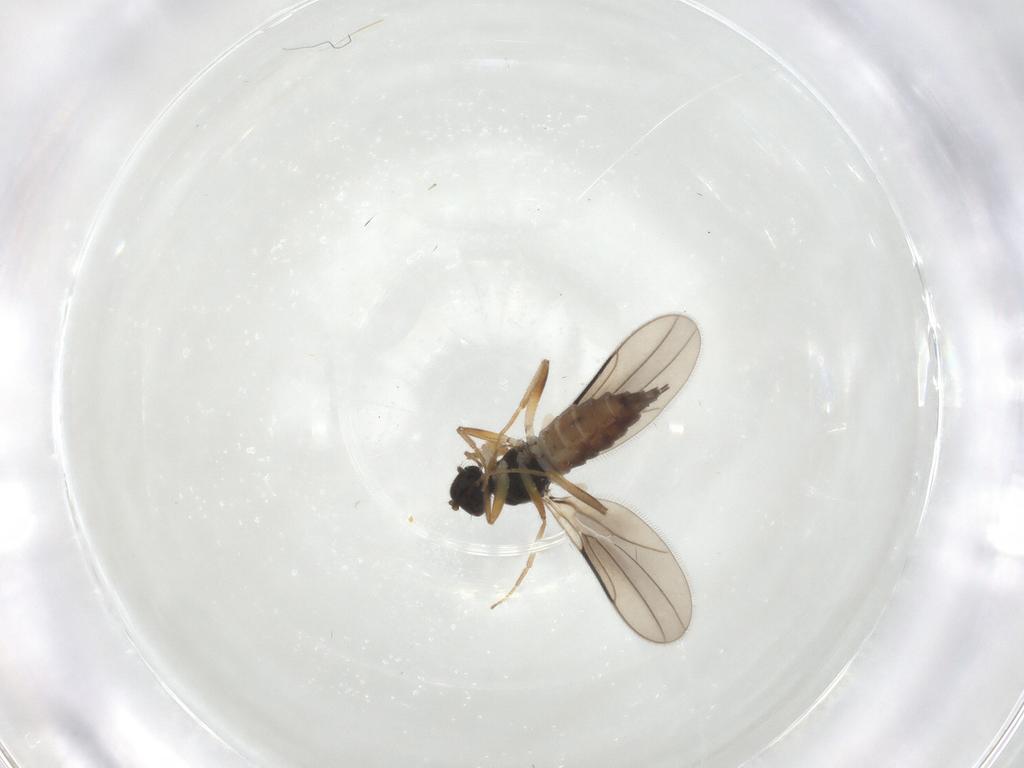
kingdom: Animalia
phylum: Arthropoda
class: Insecta
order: Diptera
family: Hybotidae
